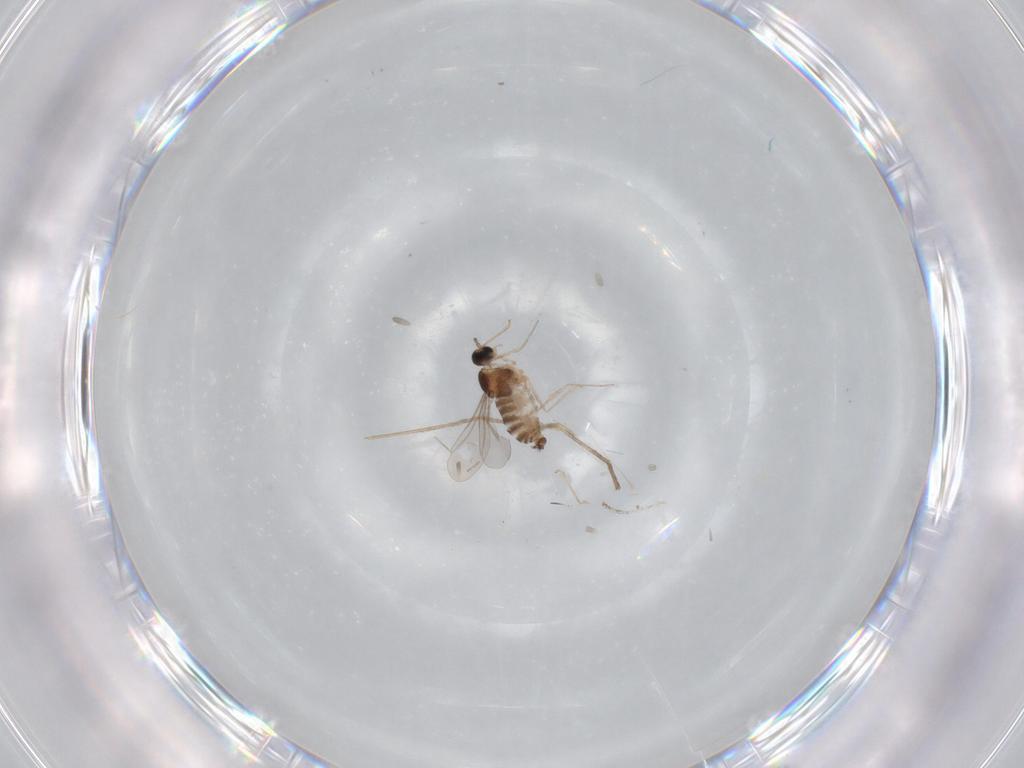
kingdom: Animalia
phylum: Arthropoda
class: Insecta
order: Diptera
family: Cecidomyiidae
